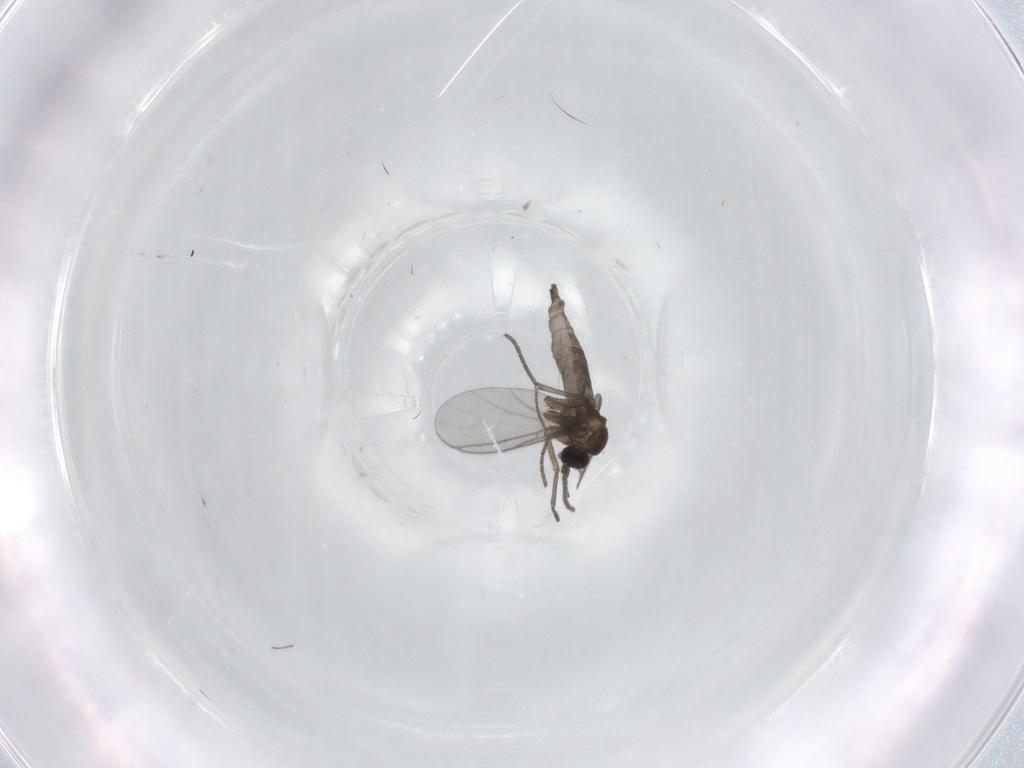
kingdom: Animalia
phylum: Arthropoda
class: Insecta
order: Diptera
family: Sciaridae
